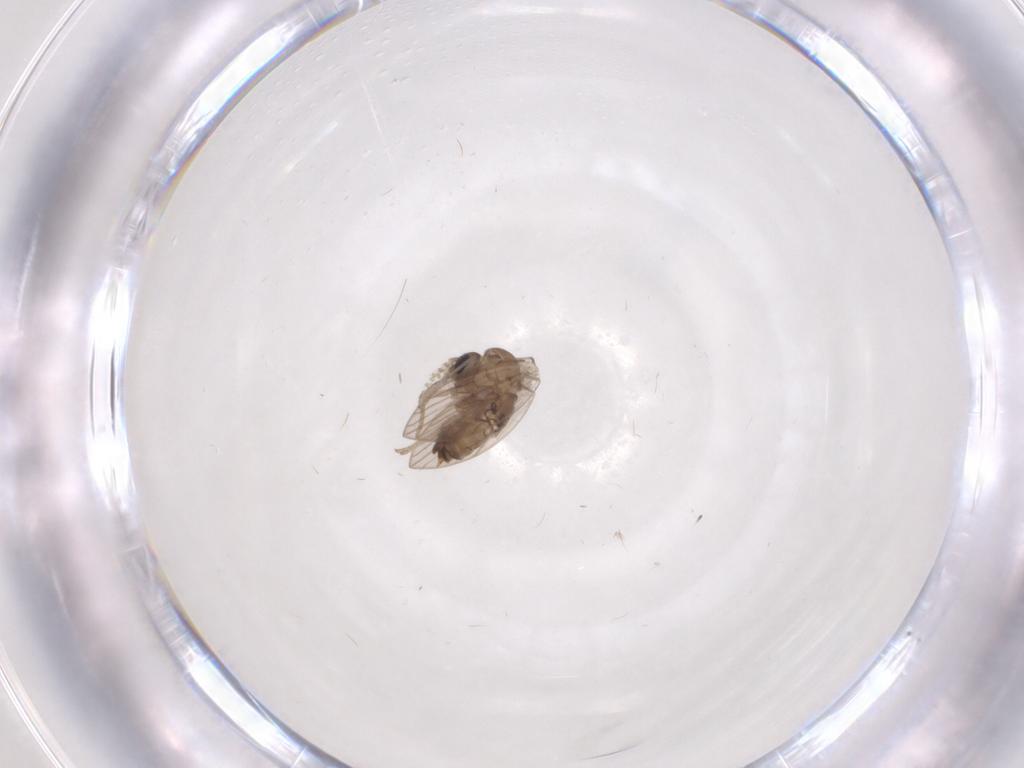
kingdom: Animalia
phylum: Arthropoda
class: Insecta
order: Diptera
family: Psychodidae
